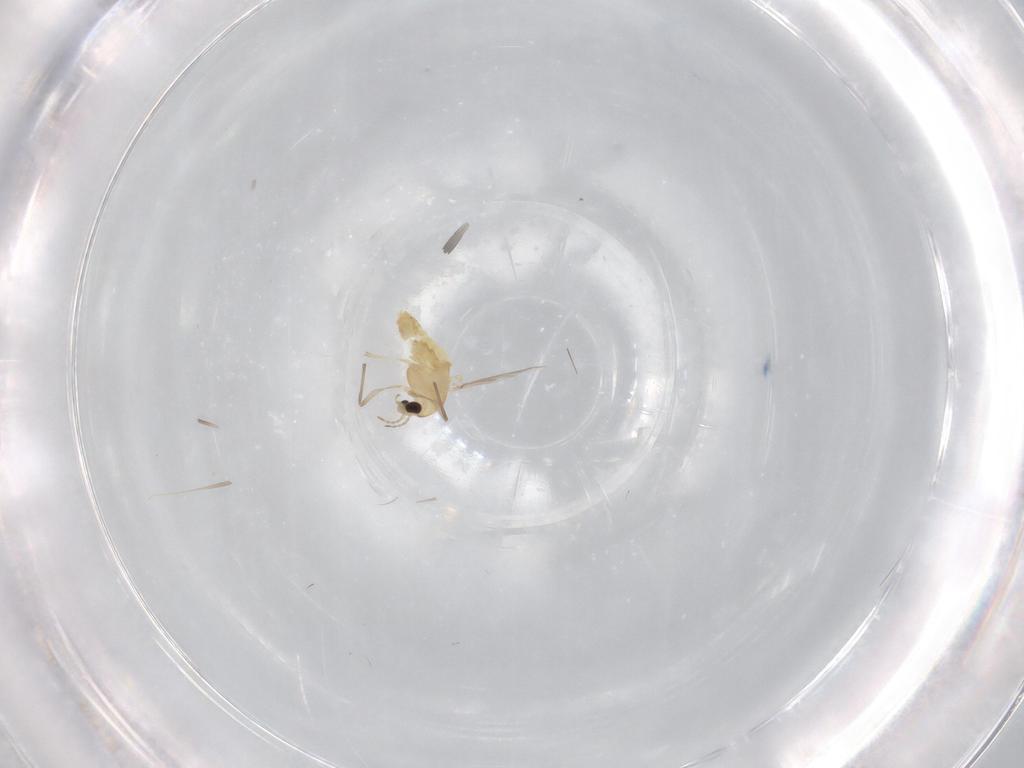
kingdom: Animalia
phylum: Arthropoda
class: Insecta
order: Diptera
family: Chironomidae
